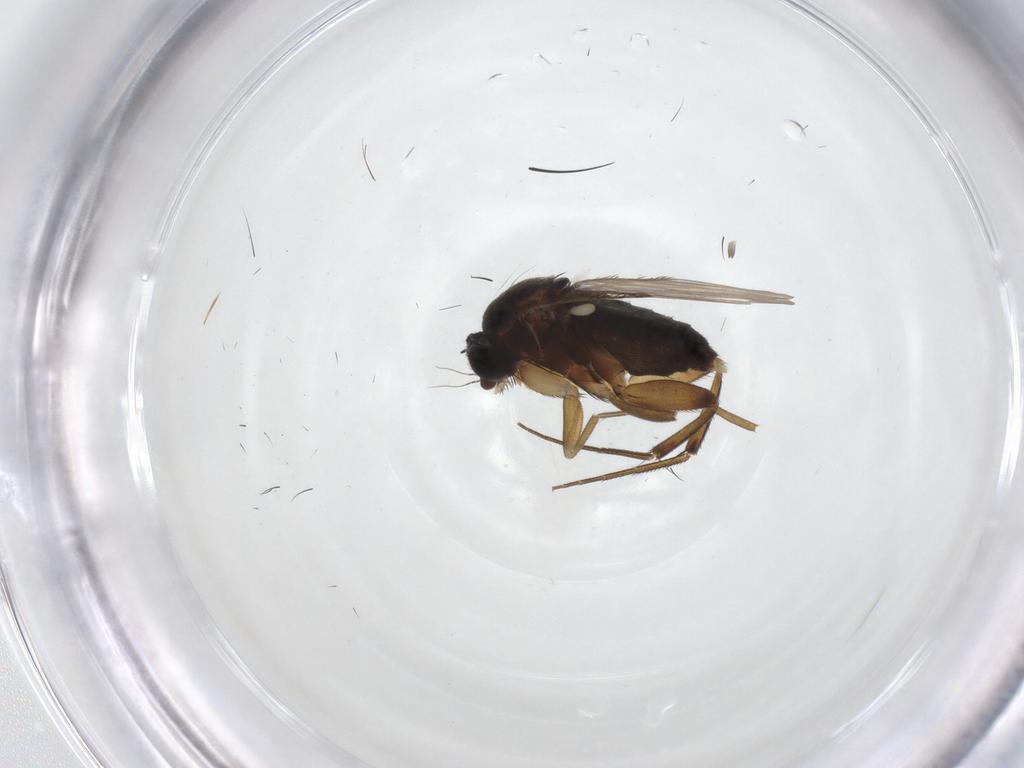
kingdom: Animalia
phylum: Arthropoda
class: Insecta
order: Diptera
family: Phoridae
